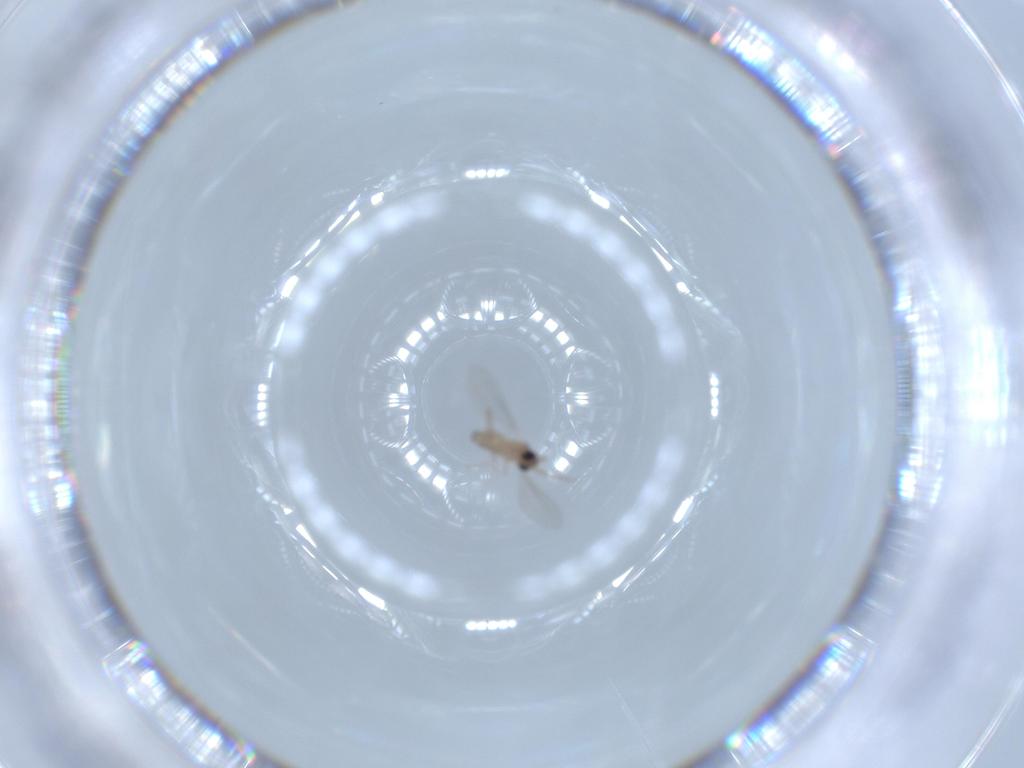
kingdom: Animalia
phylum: Arthropoda
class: Insecta
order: Diptera
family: Cecidomyiidae
